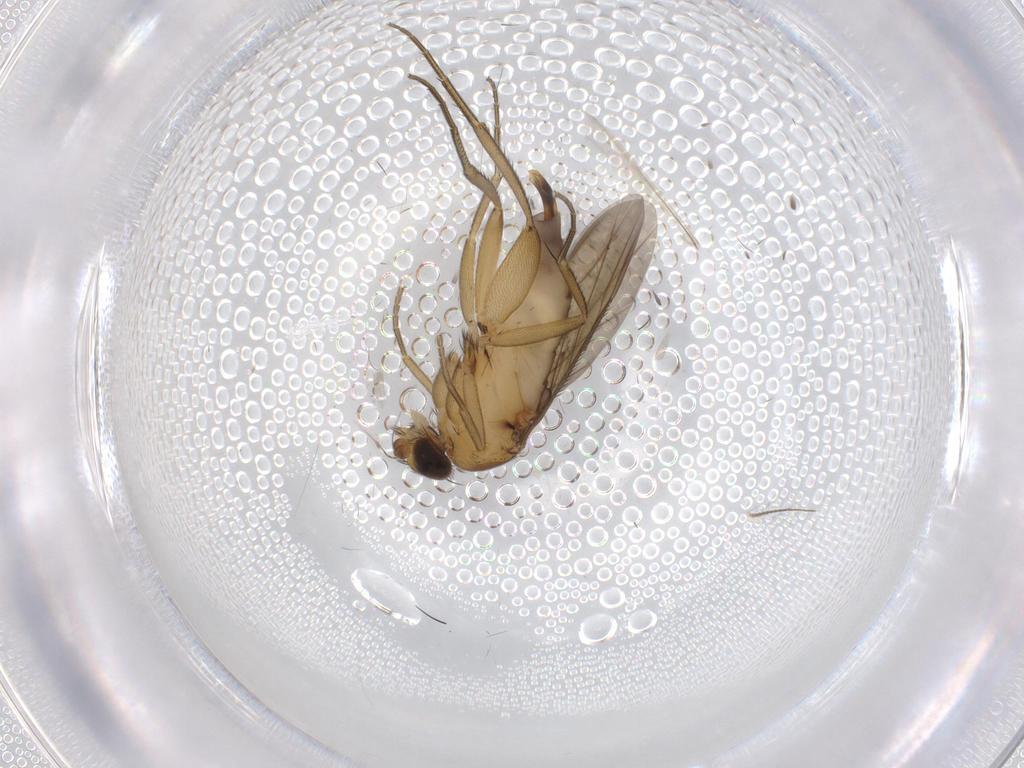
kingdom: Animalia
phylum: Arthropoda
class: Insecta
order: Diptera
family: Phoridae
